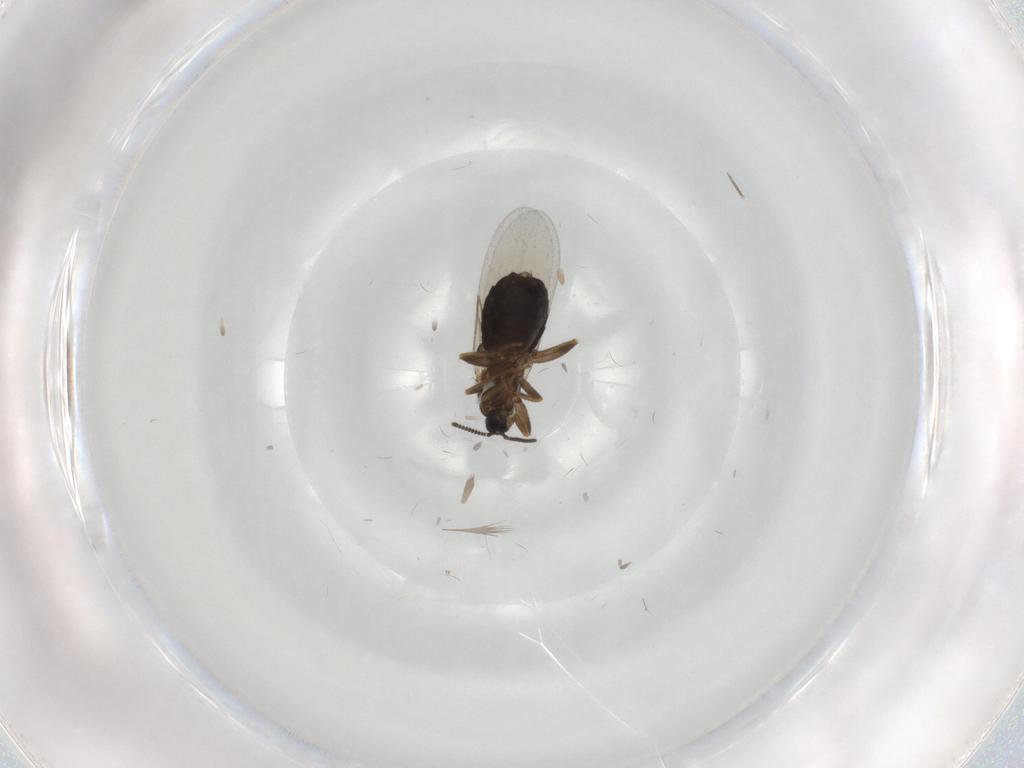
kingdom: Animalia
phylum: Arthropoda
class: Insecta
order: Diptera
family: Scatopsidae
